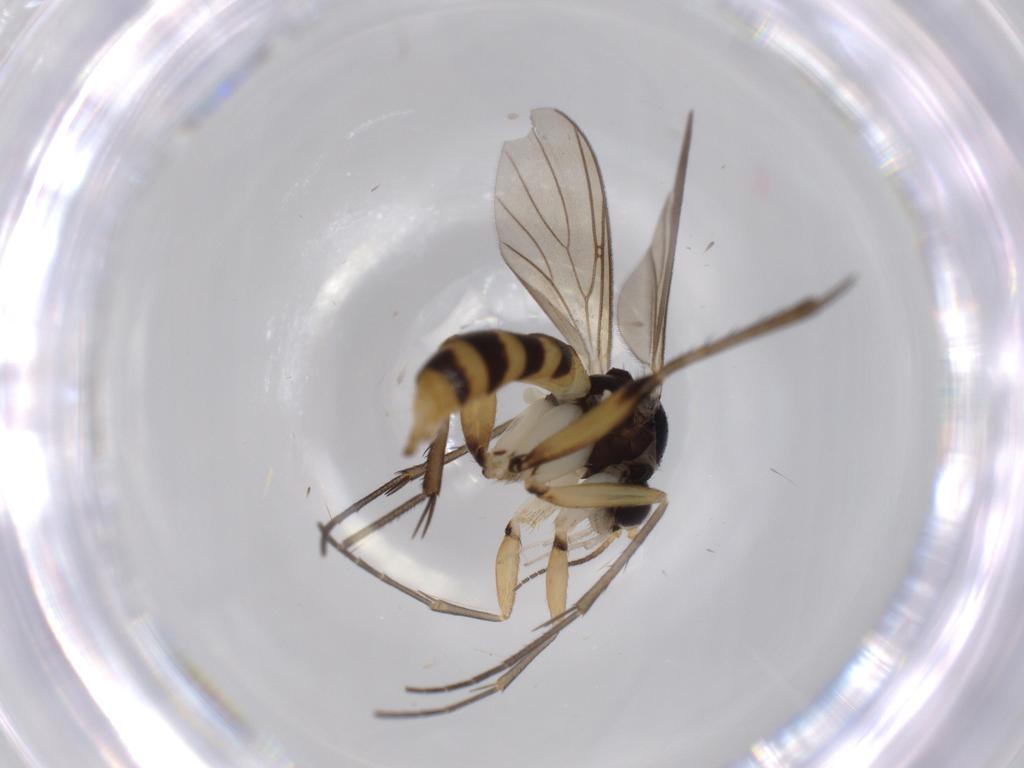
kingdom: Animalia
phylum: Arthropoda
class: Insecta
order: Diptera
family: Mycetophilidae
